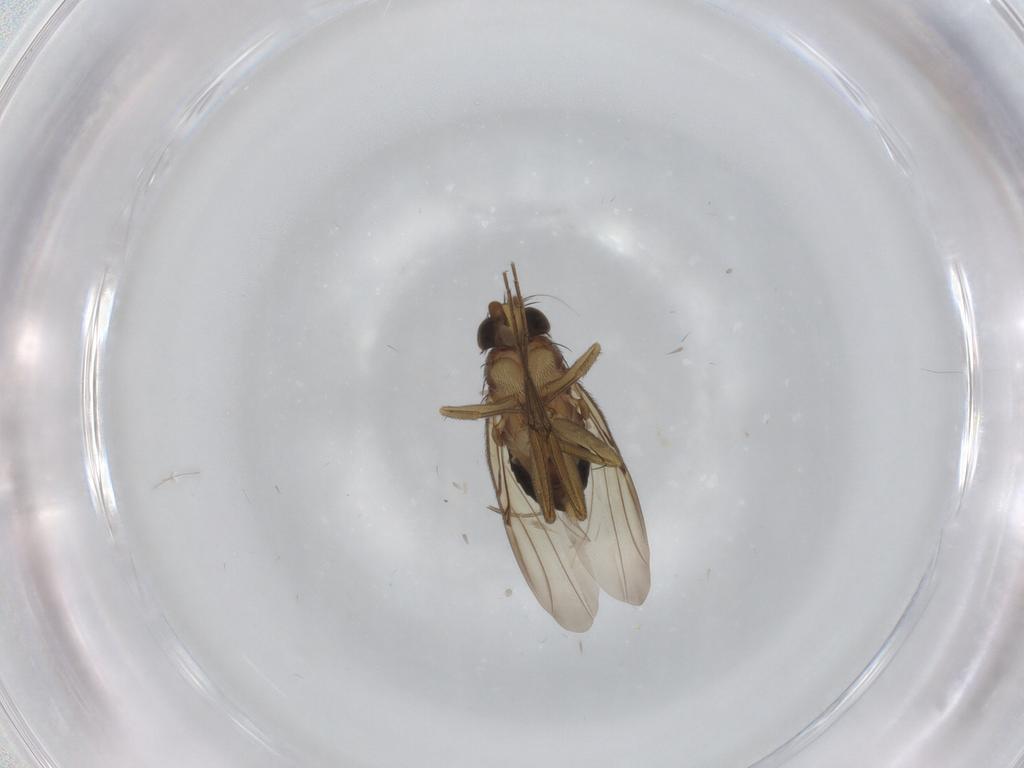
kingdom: Animalia
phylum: Arthropoda
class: Insecta
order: Diptera
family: Phoridae
